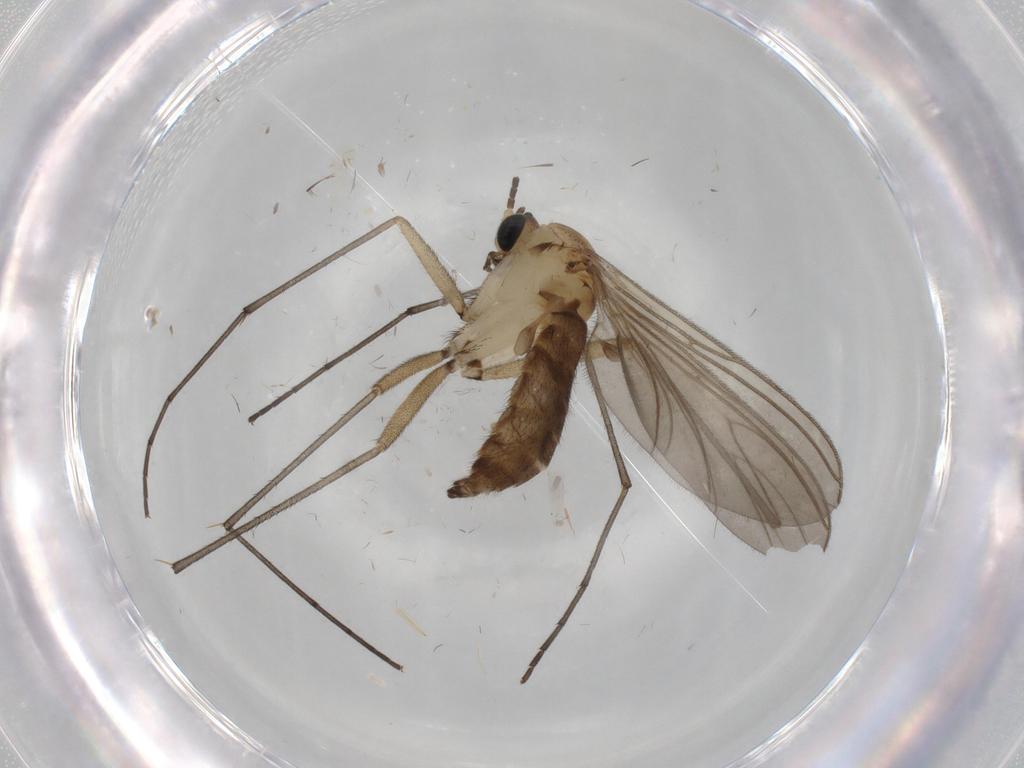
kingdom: Animalia
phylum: Arthropoda
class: Insecta
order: Diptera
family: Sciaridae
